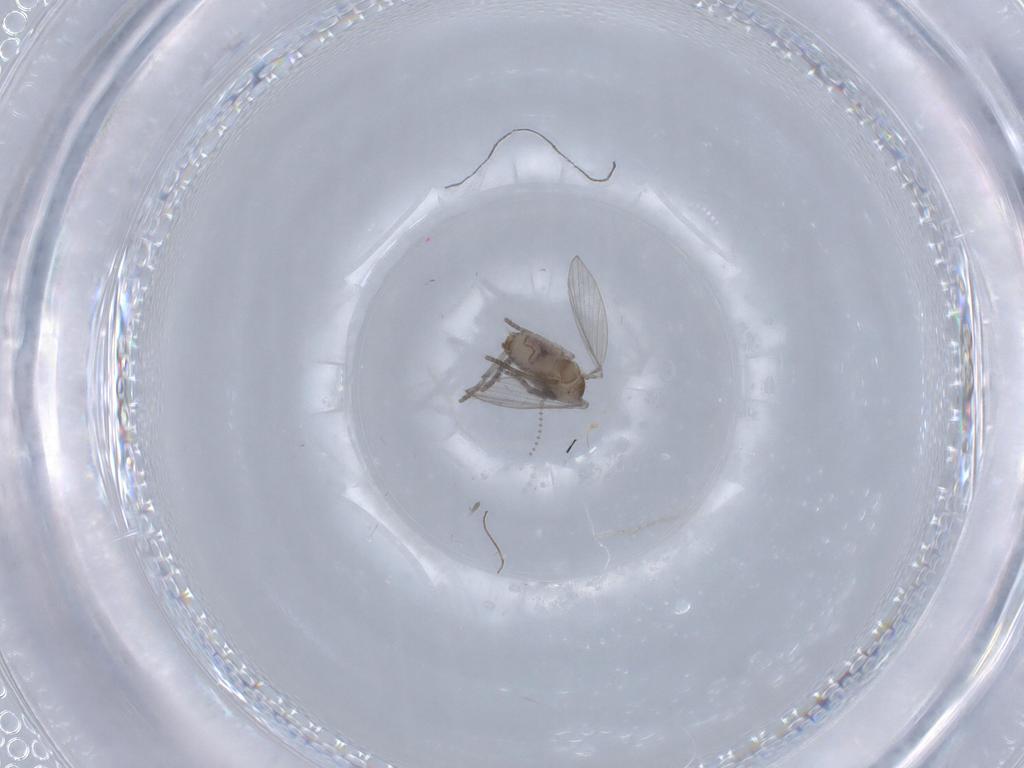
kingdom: Animalia
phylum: Arthropoda
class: Insecta
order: Diptera
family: Psychodidae
